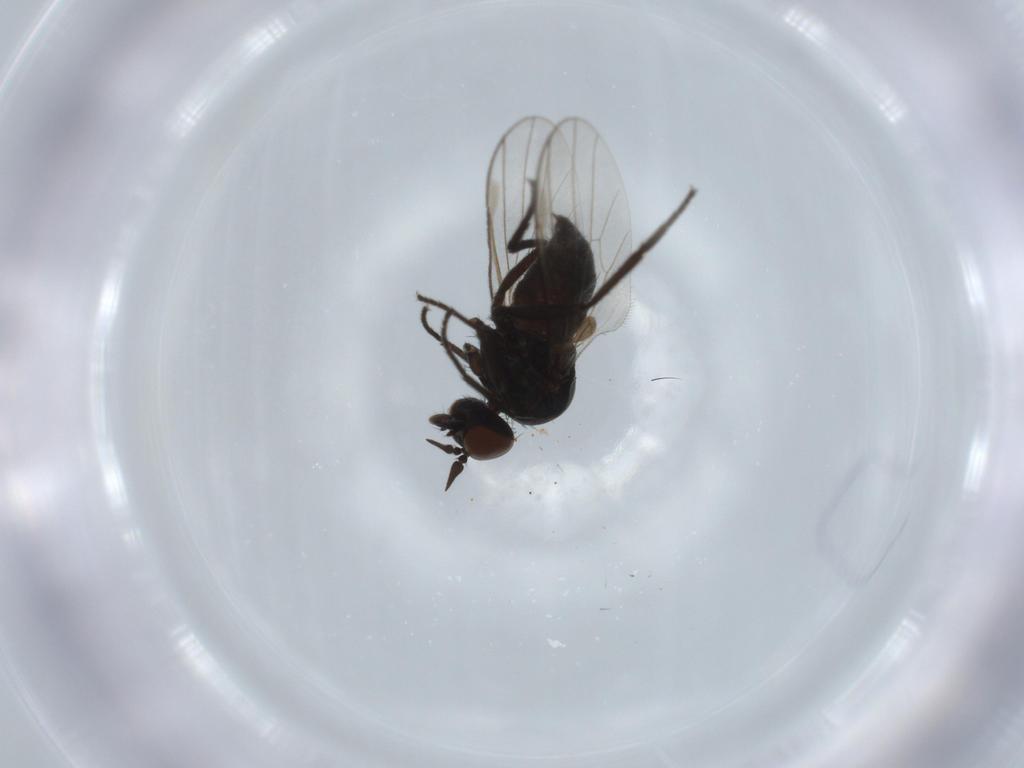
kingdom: Animalia
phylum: Arthropoda
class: Insecta
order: Diptera
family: Dolichopodidae
